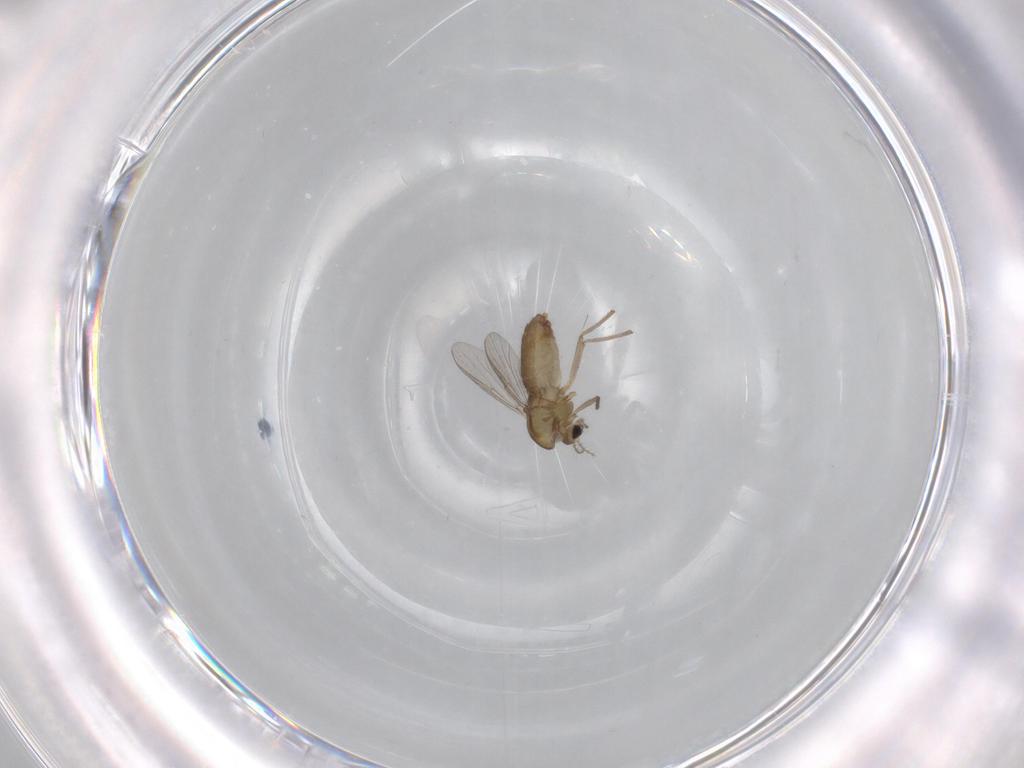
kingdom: Animalia
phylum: Arthropoda
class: Insecta
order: Diptera
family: Chironomidae
